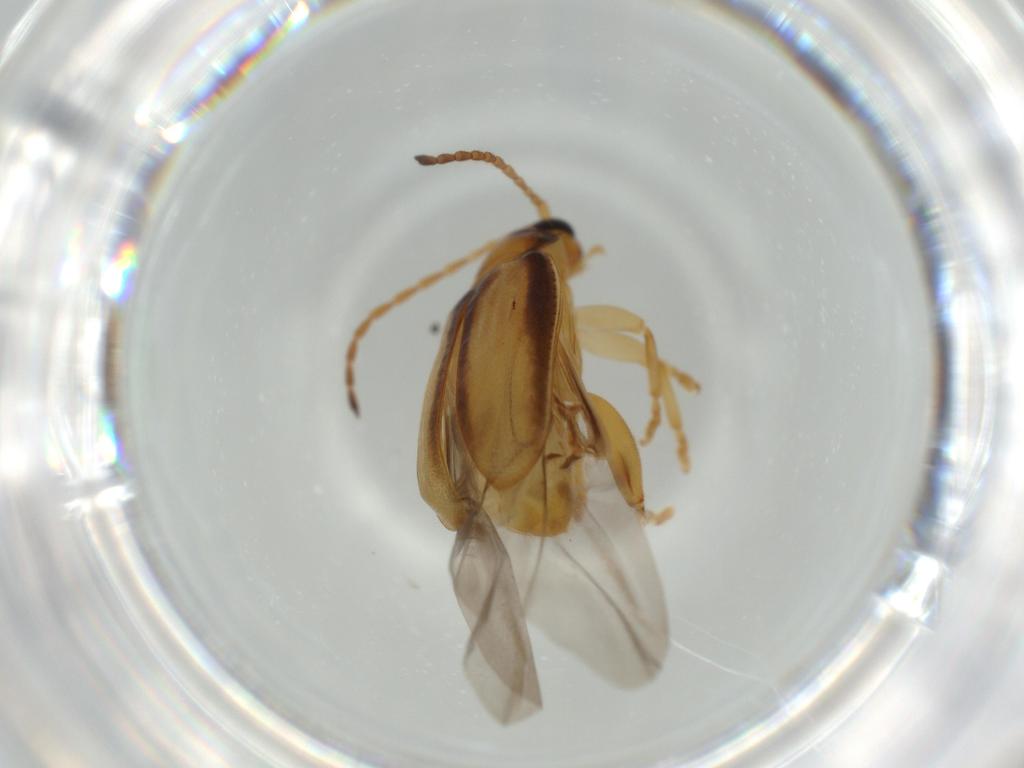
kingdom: Animalia
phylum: Arthropoda
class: Insecta
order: Coleoptera
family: Chrysomelidae
